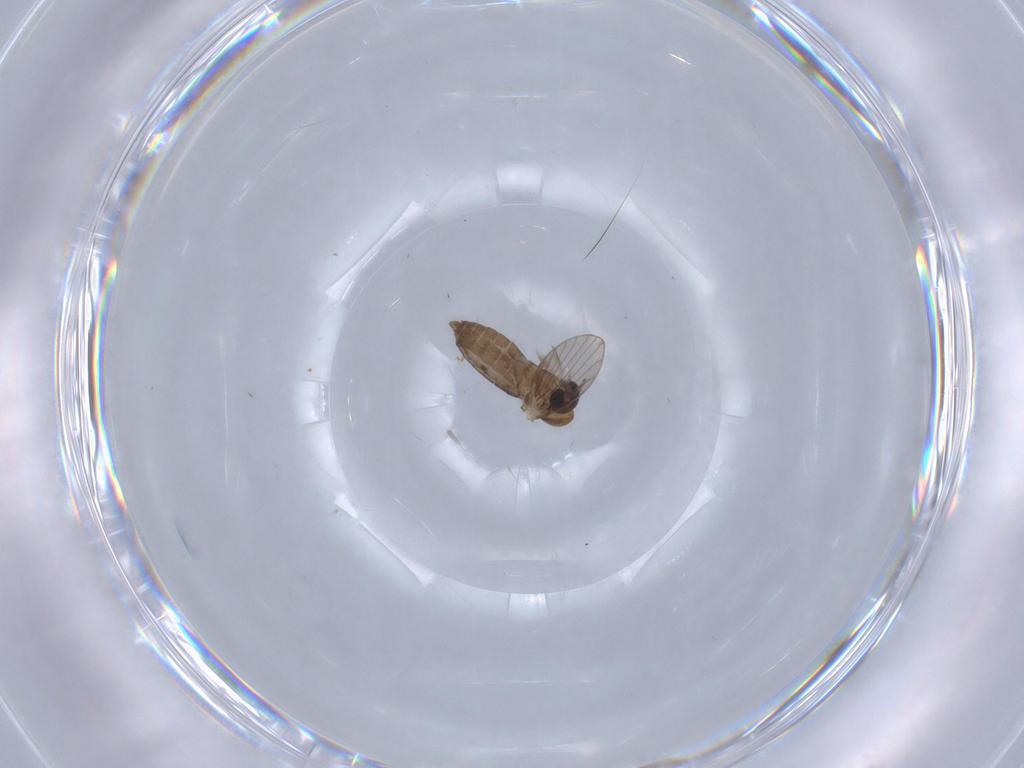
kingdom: Animalia
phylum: Arthropoda
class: Insecta
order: Diptera
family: Psychodidae
